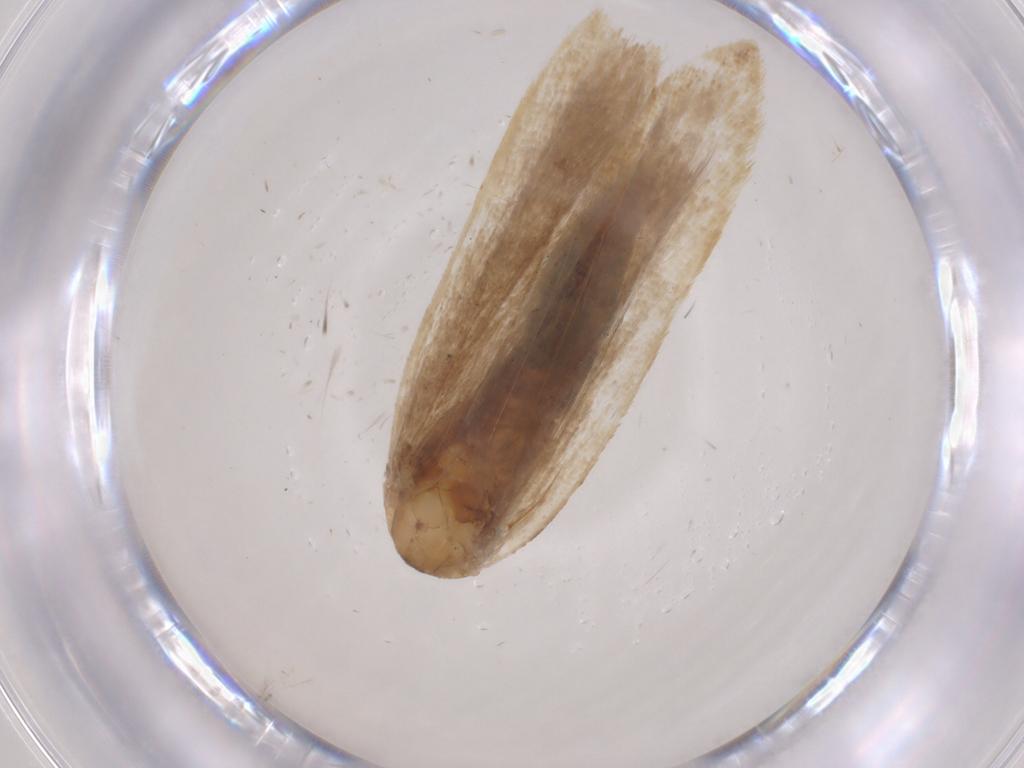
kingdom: Animalia
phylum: Arthropoda
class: Insecta
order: Lepidoptera
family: Gelechiidae
